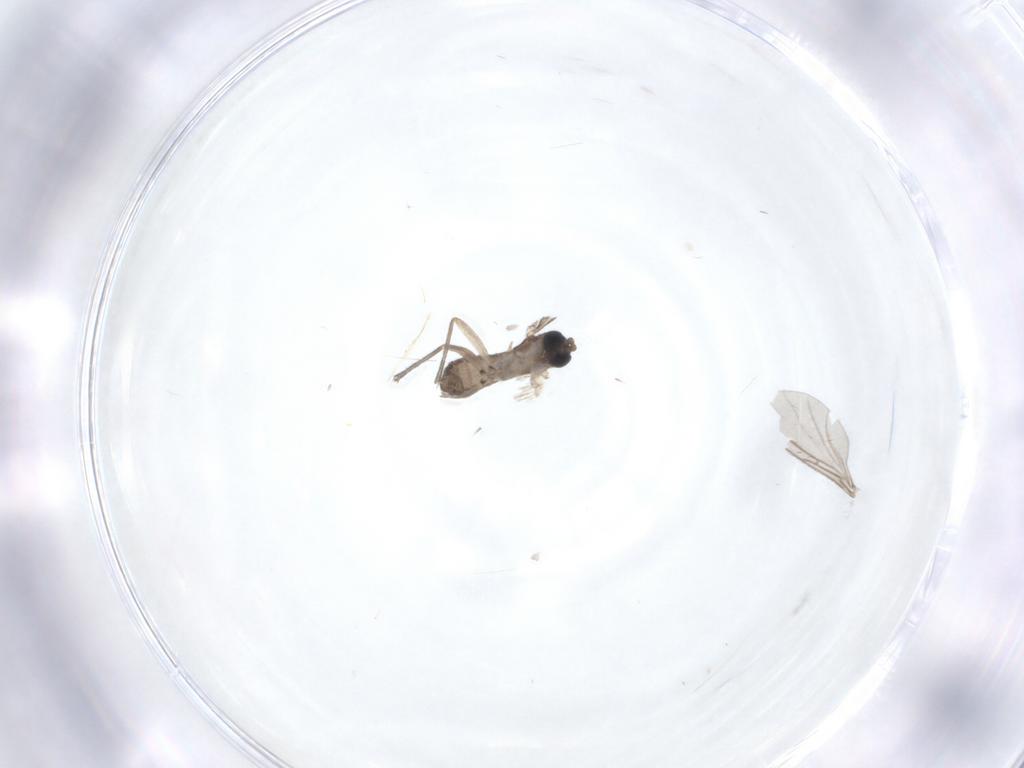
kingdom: Animalia
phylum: Arthropoda
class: Insecta
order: Diptera
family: Sciaridae
